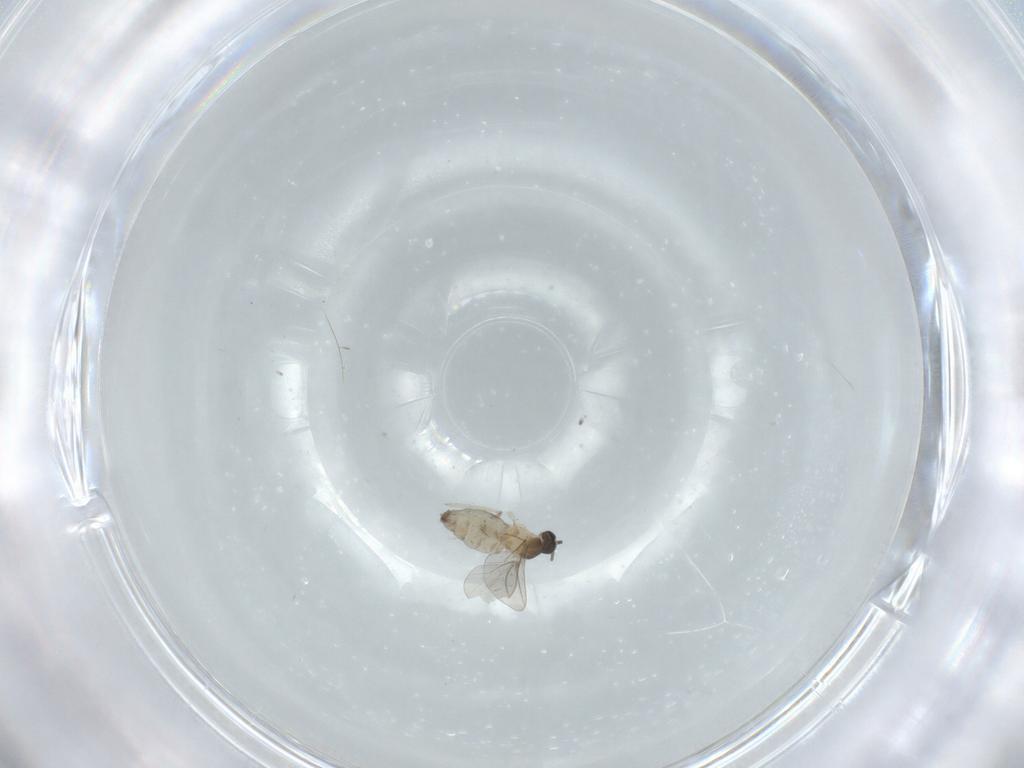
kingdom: Animalia
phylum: Arthropoda
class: Insecta
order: Diptera
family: Cecidomyiidae
